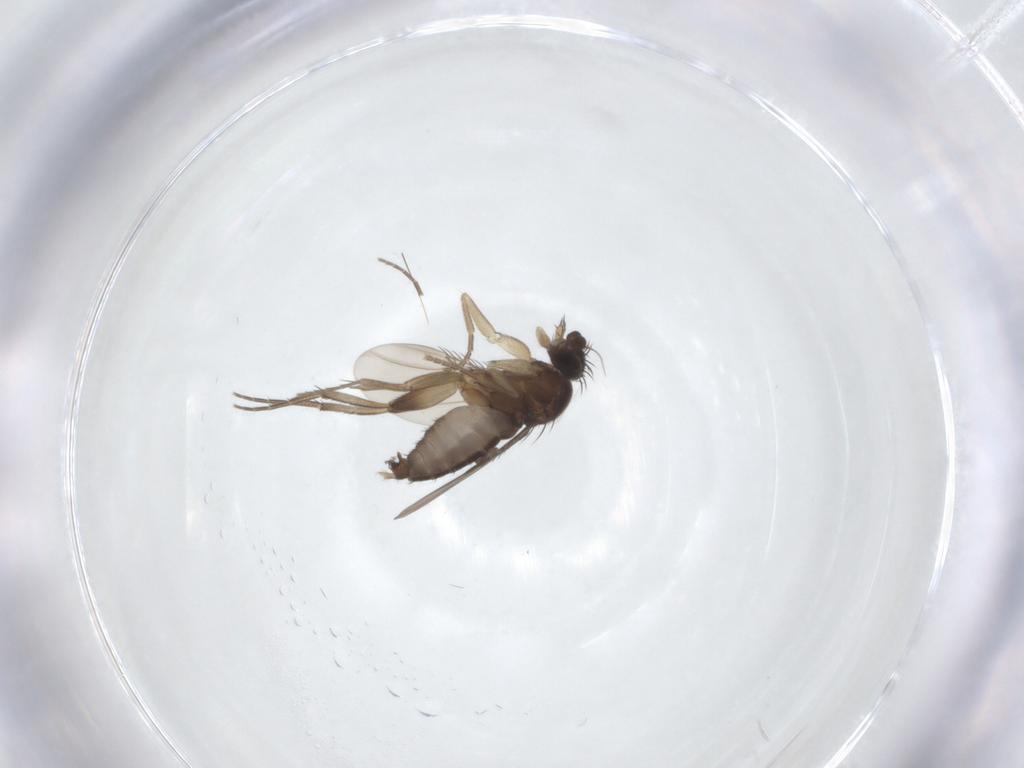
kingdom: Animalia
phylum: Arthropoda
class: Insecta
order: Diptera
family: Phoridae
